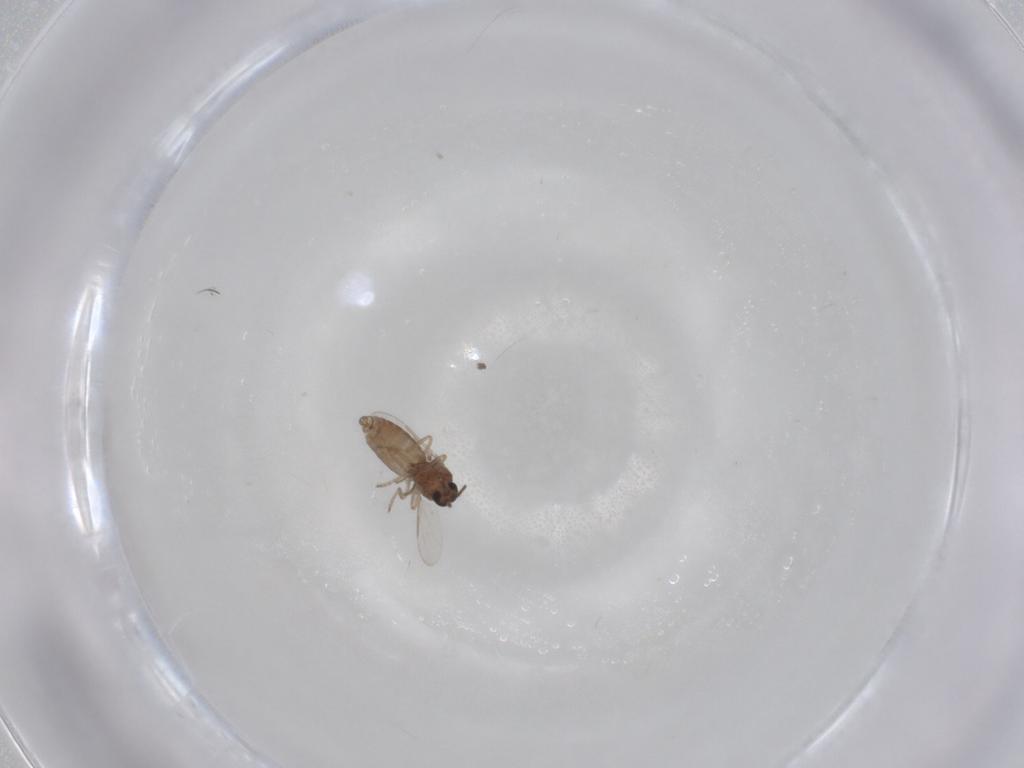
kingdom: Animalia
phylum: Arthropoda
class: Insecta
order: Diptera
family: Ceratopogonidae
